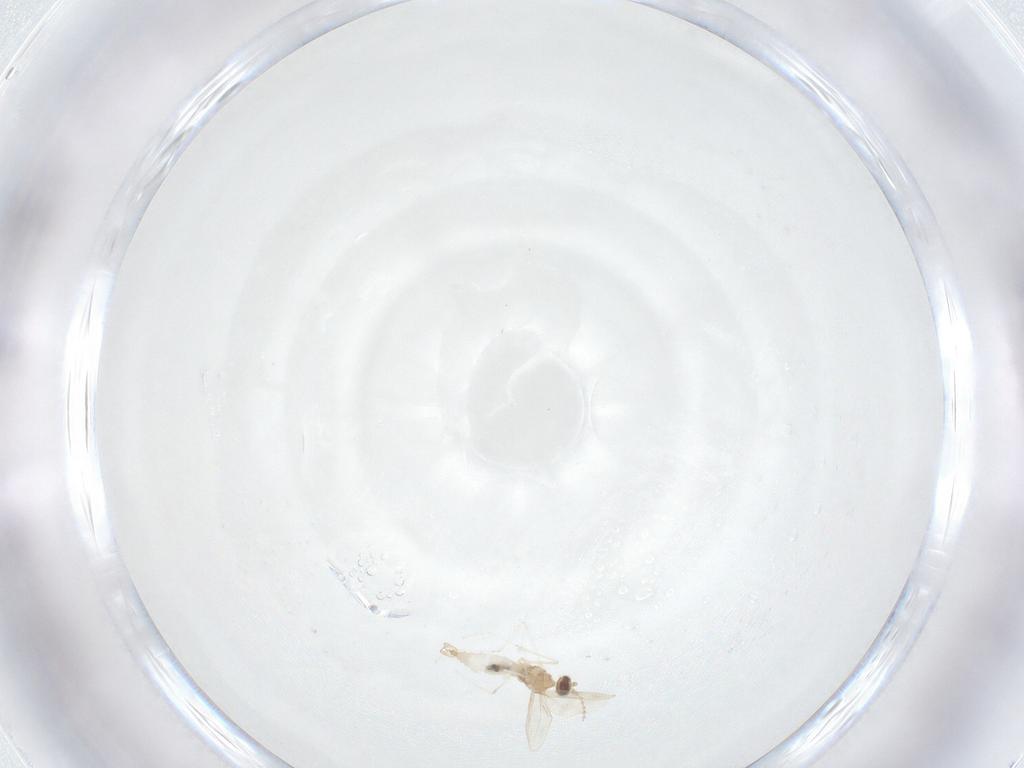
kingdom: Animalia
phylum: Arthropoda
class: Insecta
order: Diptera
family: Cecidomyiidae
